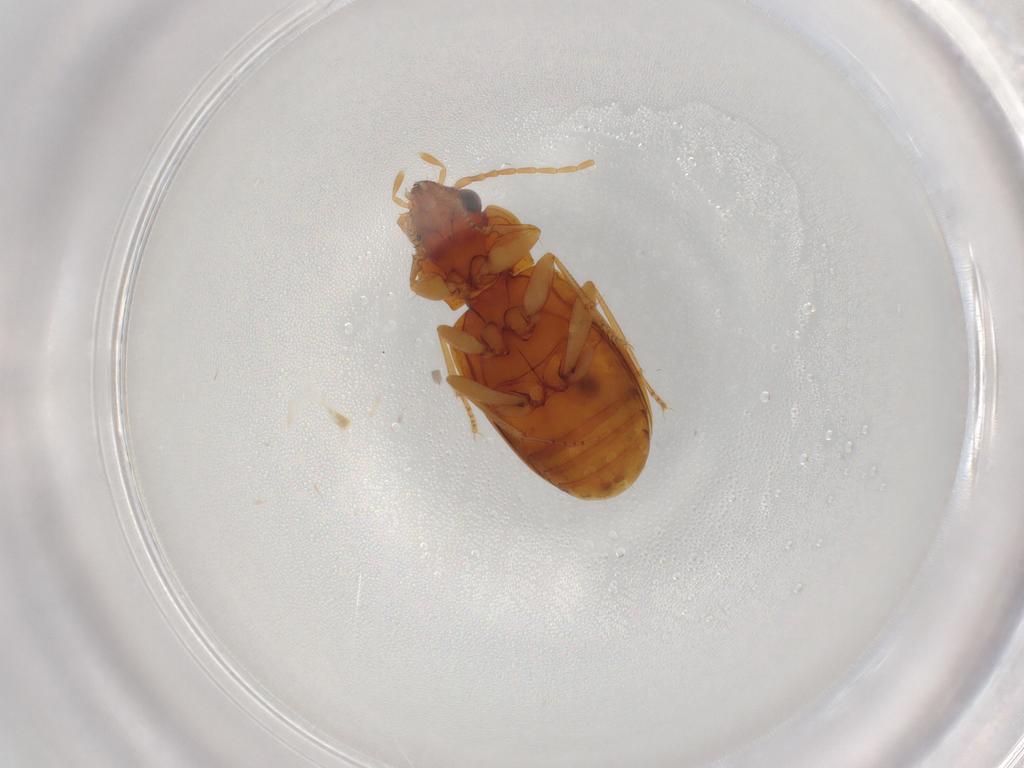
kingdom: Animalia
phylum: Arthropoda
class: Insecta
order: Coleoptera
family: Carabidae
